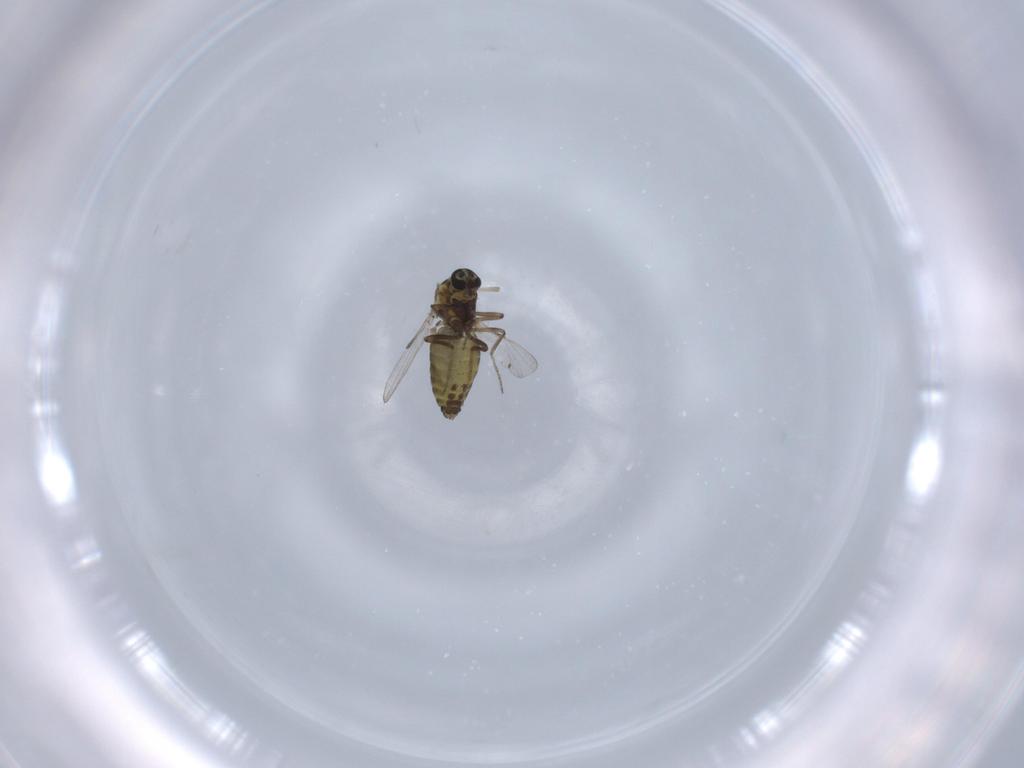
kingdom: Animalia
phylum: Arthropoda
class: Insecta
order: Diptera
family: Ceratopogonidae
